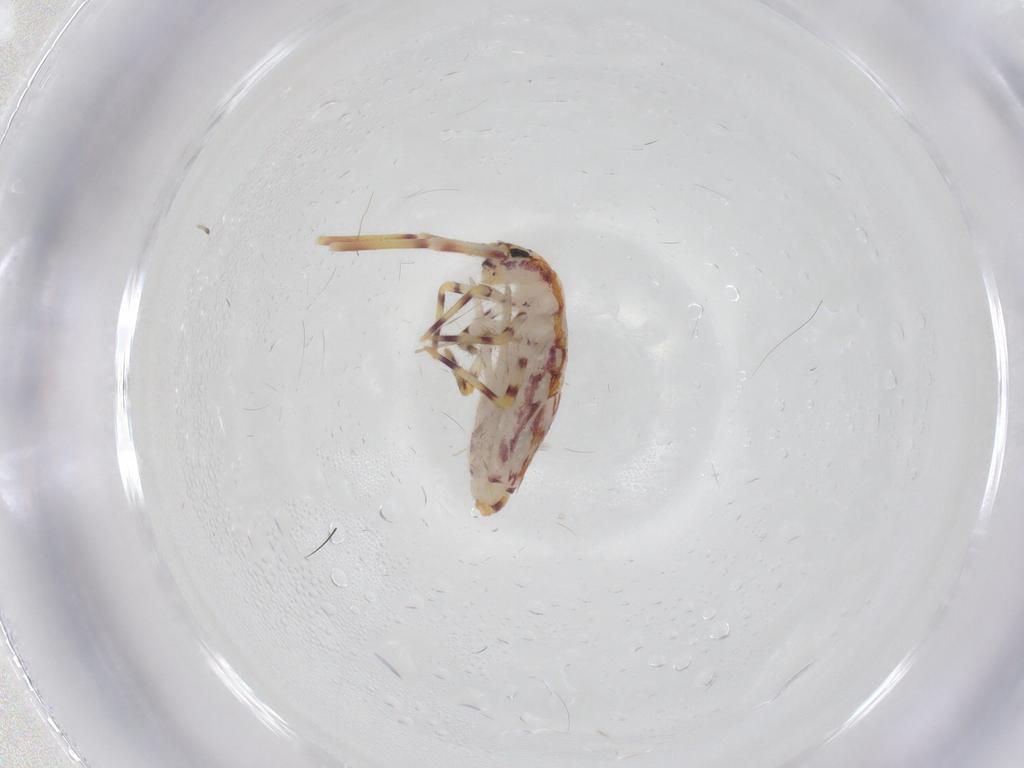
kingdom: Animalia
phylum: Arthropoda
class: Collembola
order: Entomobryomorpha
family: Entomobryidae
